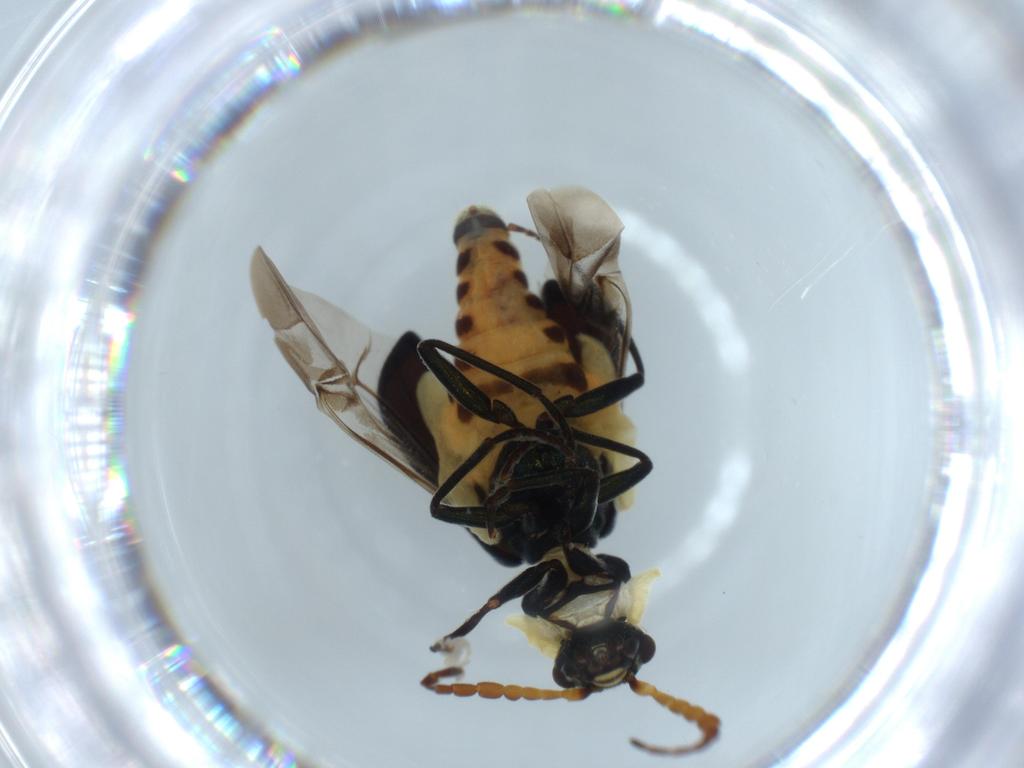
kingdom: Animalia
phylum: Arthropoda
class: Insecta
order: Coleoptera
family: Melyridae
